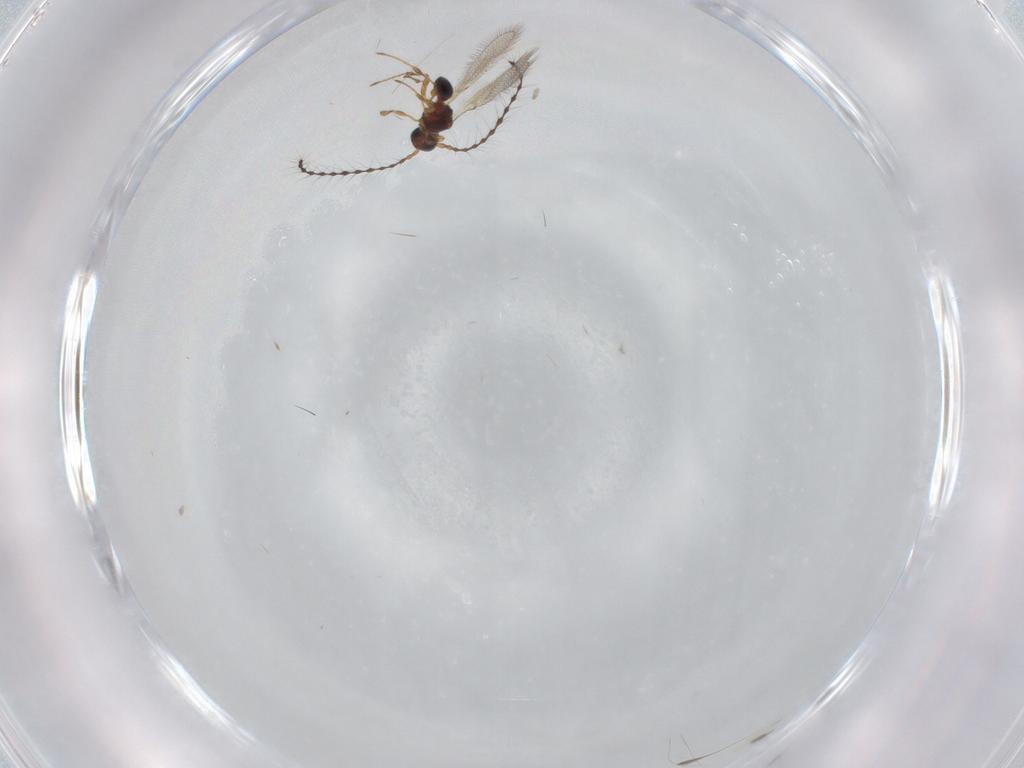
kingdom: Animalia
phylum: Arthropoda
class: Insecta
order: Hymenoptera
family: Diapriidae
